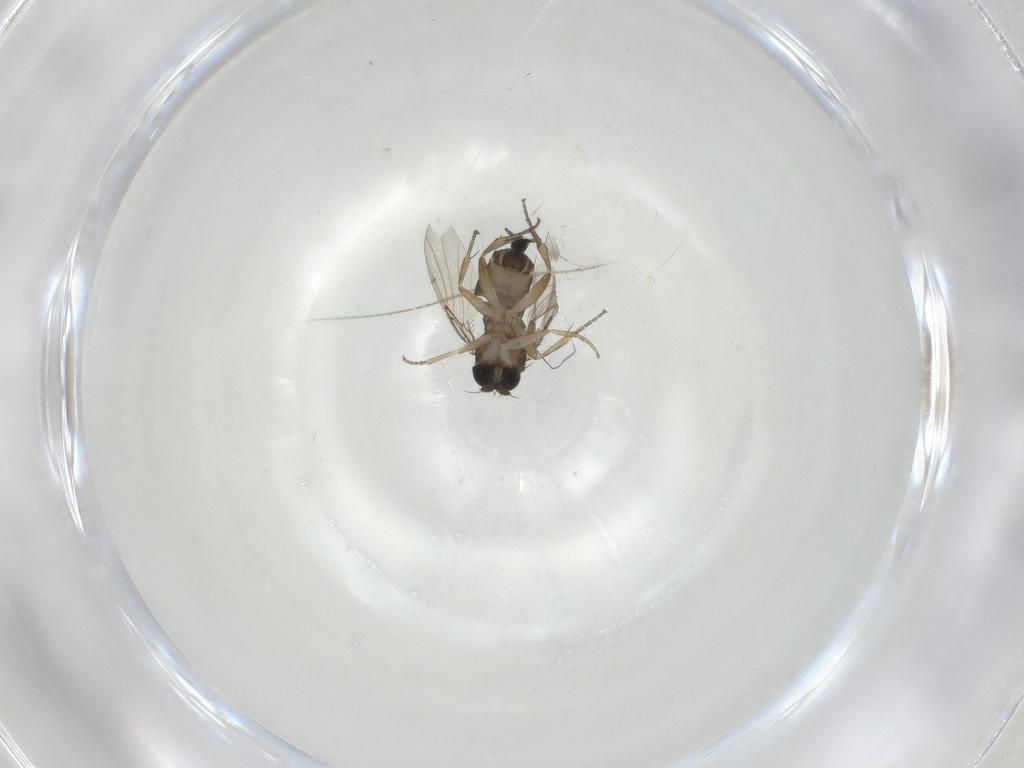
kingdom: Animalia
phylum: Arthropoda
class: Insecta
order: Diptera
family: Phoridae
